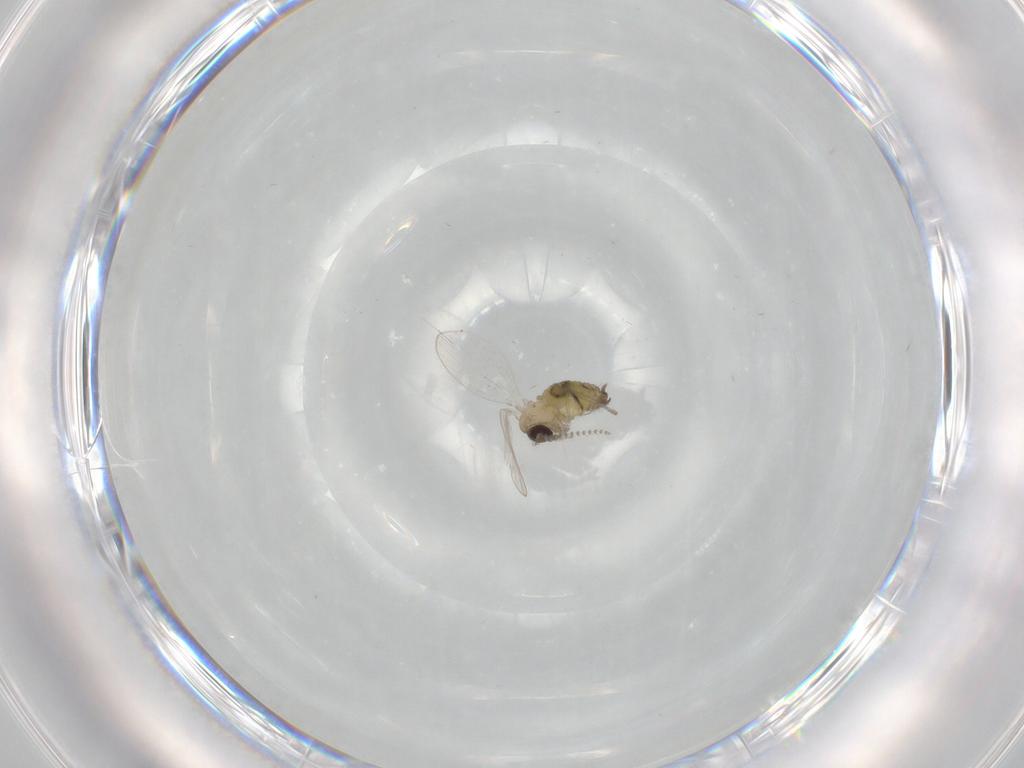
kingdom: Animalia
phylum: Arthropoda
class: Insecta
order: Diptera
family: Psychodidae
